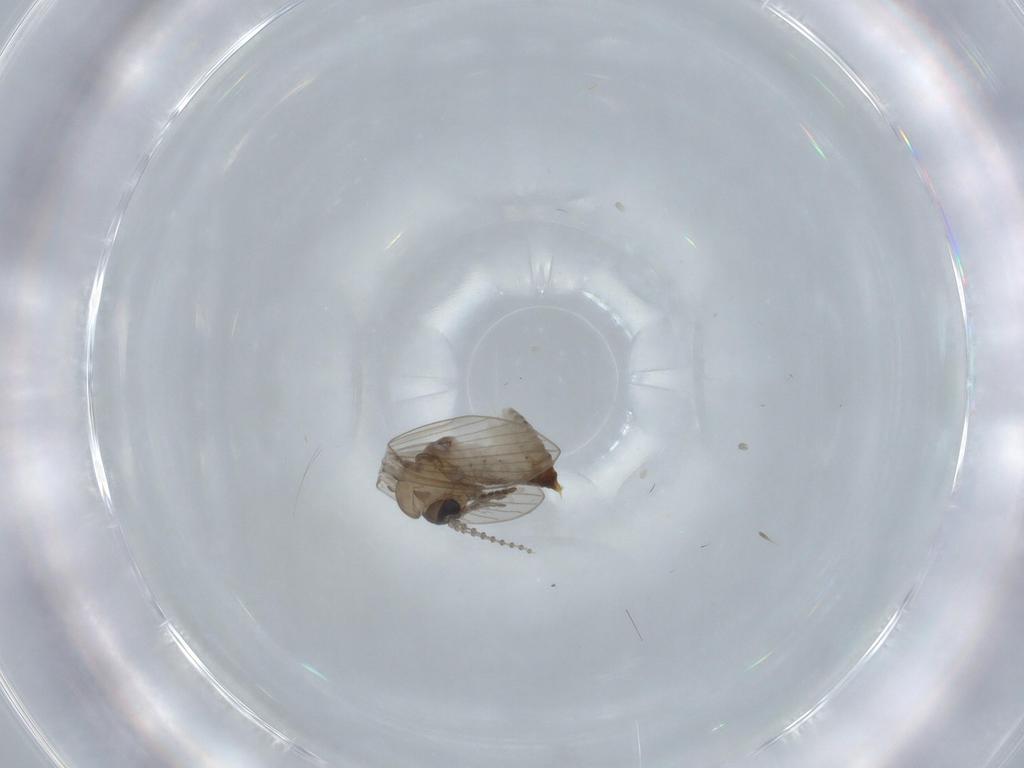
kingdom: Animalia
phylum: Arthropoda
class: Insecta
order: Diptera
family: Psychodidae
